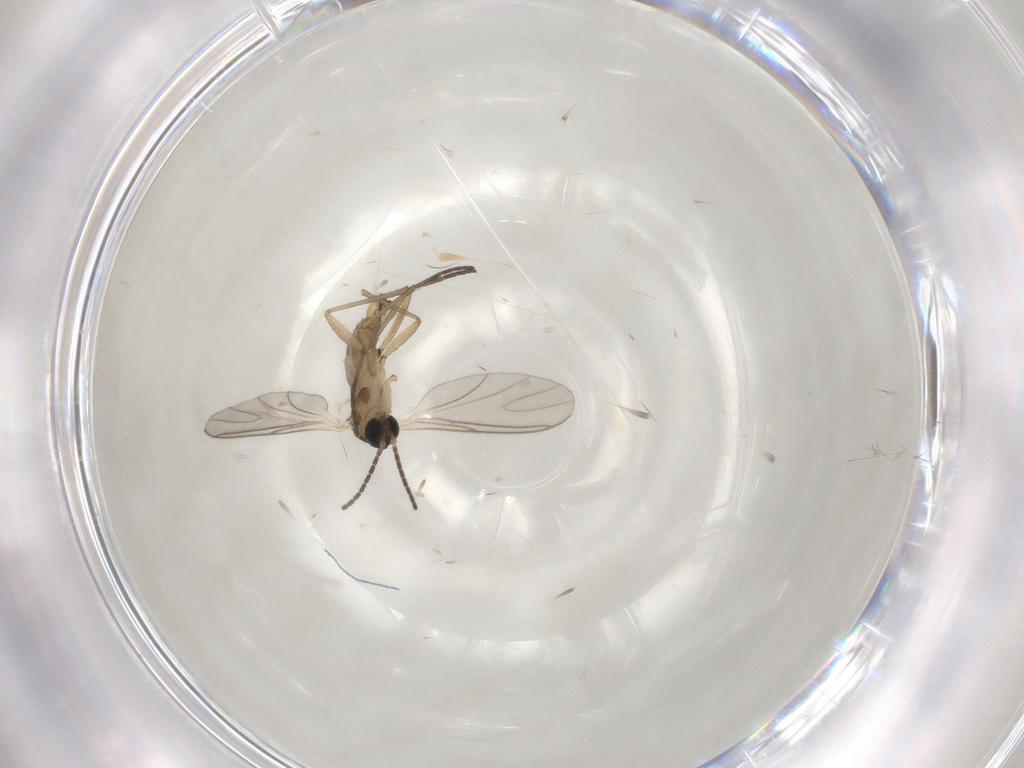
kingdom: Animalia
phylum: Arthropoda
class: Insecta
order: Diptera
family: Chironomidae
